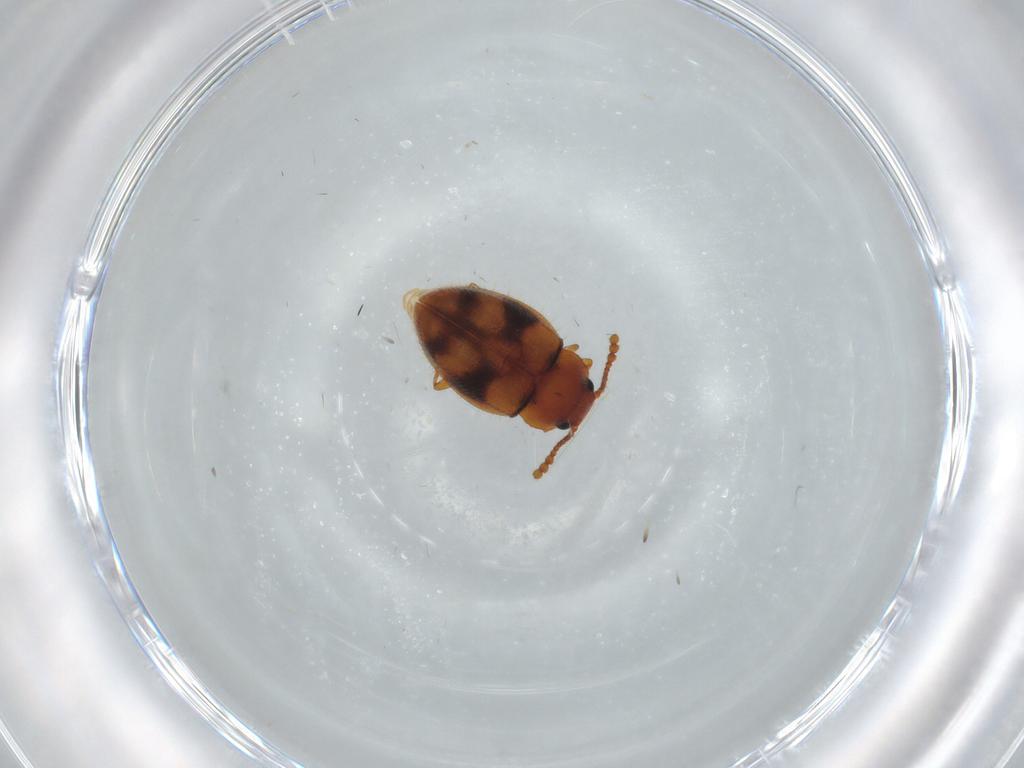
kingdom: Animalia
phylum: Arthropoda
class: Insecta
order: Coleoptera
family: Erotylidae
